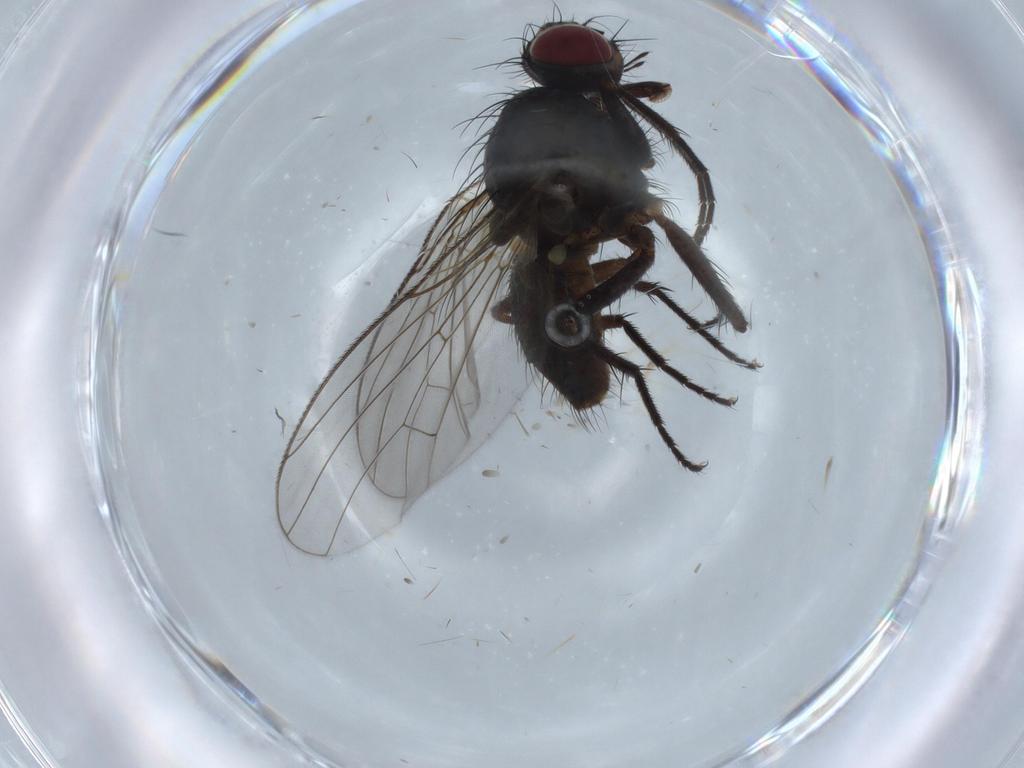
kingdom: Animalia
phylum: Arthropoda
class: Insecta
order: Diptera
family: Muscidae
